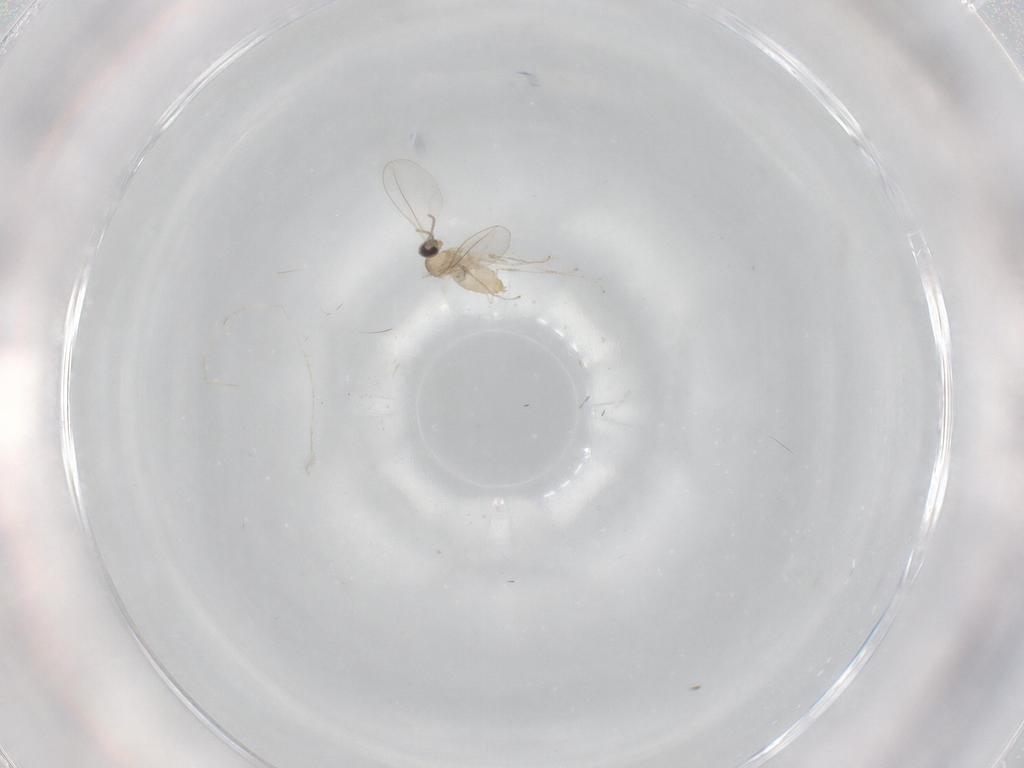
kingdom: Animalia
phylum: Arthropoda
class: Insecta
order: Diptera
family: Cecidomyiidae
